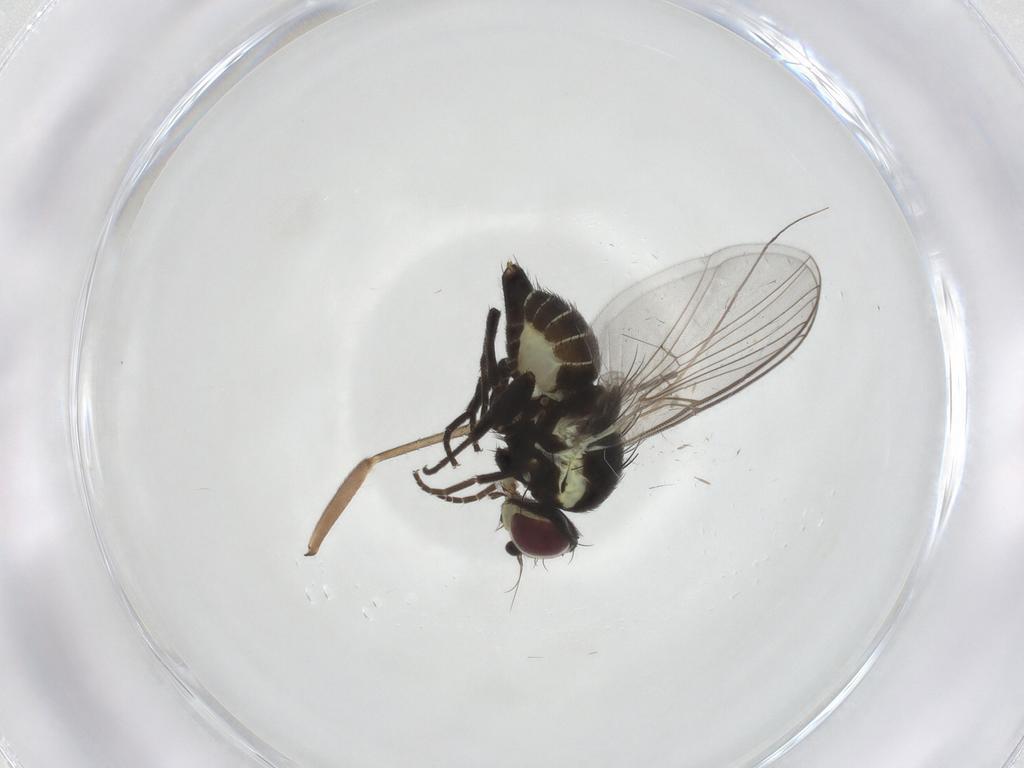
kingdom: Animalia
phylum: Arthropoda
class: Insecta
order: Diptera
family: Agromyzidae
